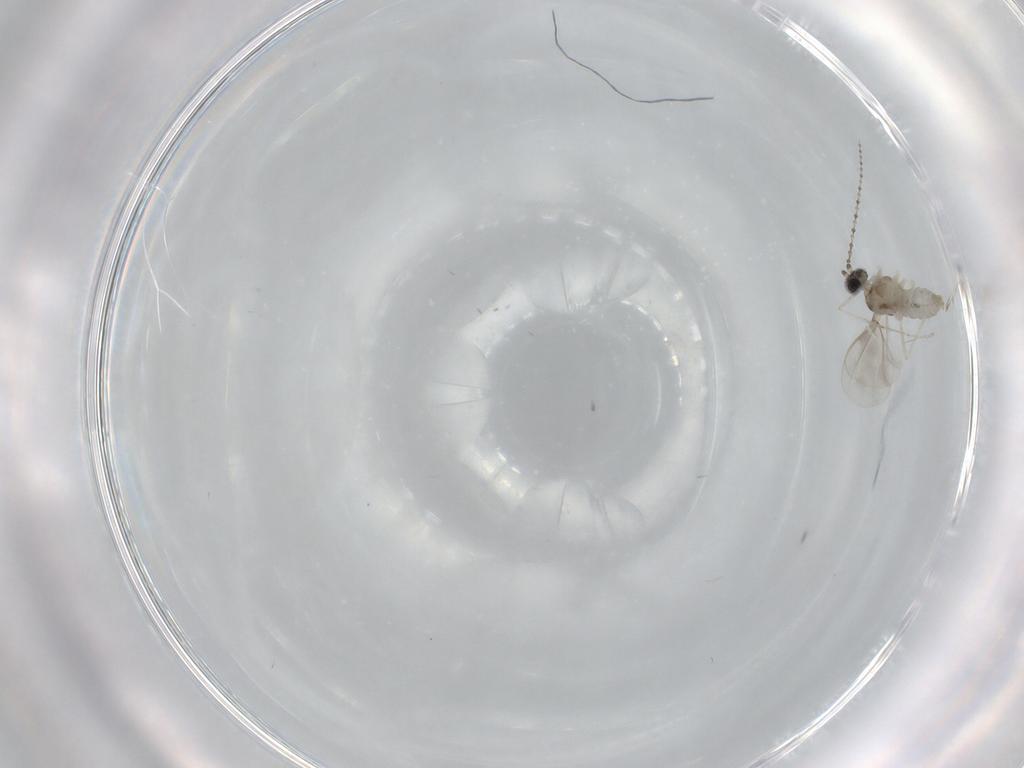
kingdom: Animalia
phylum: Arthropoda
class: Insecta
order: Diptera
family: Cecidomyiidae
